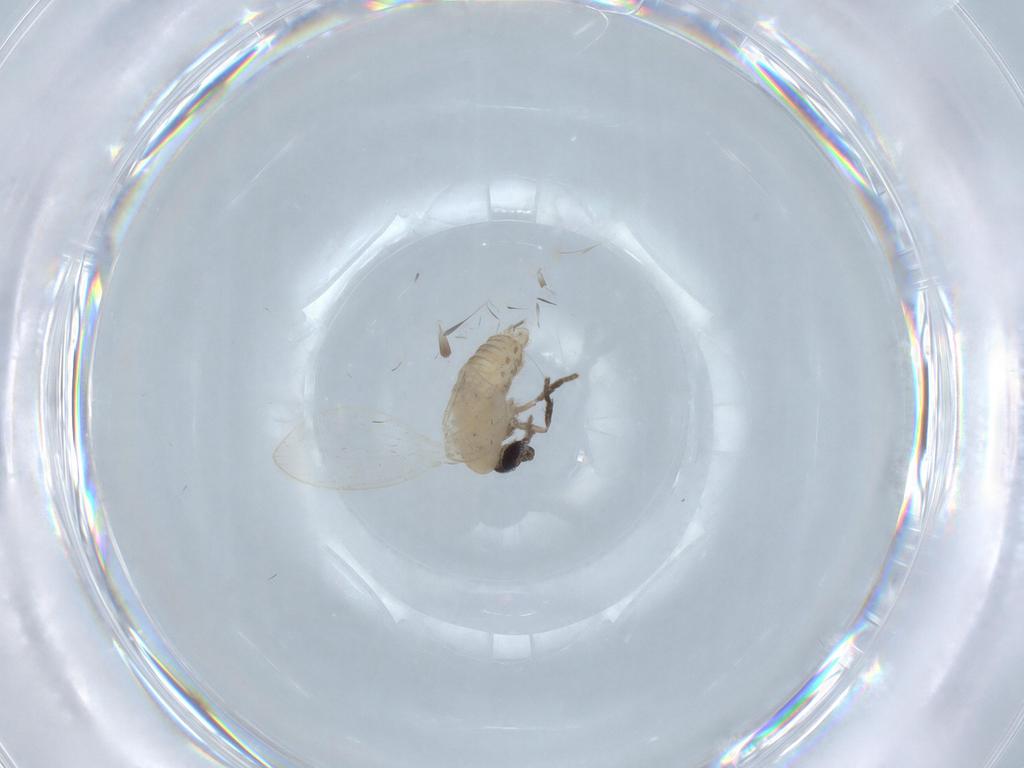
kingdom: Animalia
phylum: Arthropoda
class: Insecta
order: Diptera
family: Psychodidae
